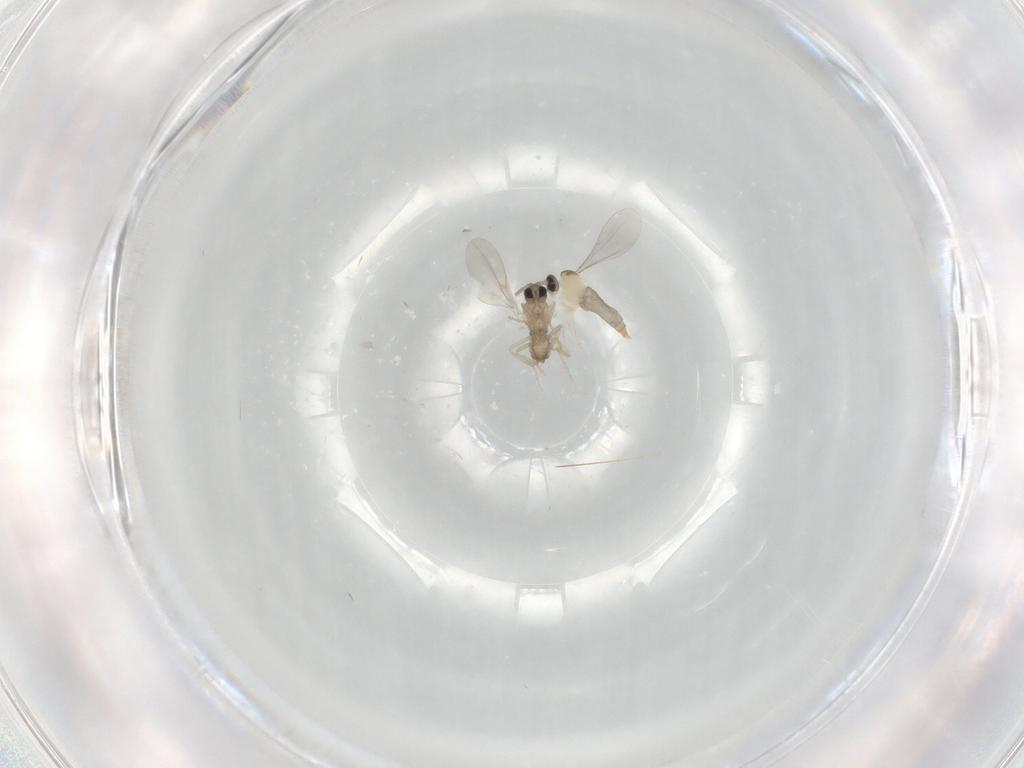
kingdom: Animalia
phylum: Arthropoda
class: Insecta
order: Diptera
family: Cecidomyiidae
